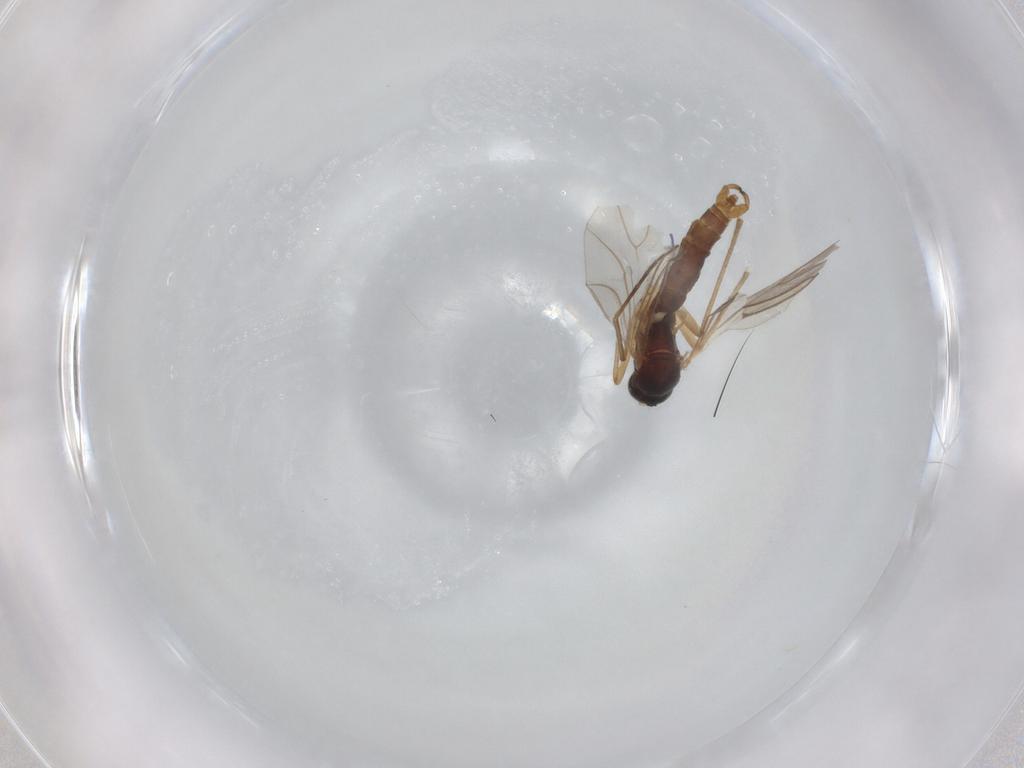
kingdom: Animalia
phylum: Arthropoda
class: Insecta
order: Diptera
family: Sciaridae
